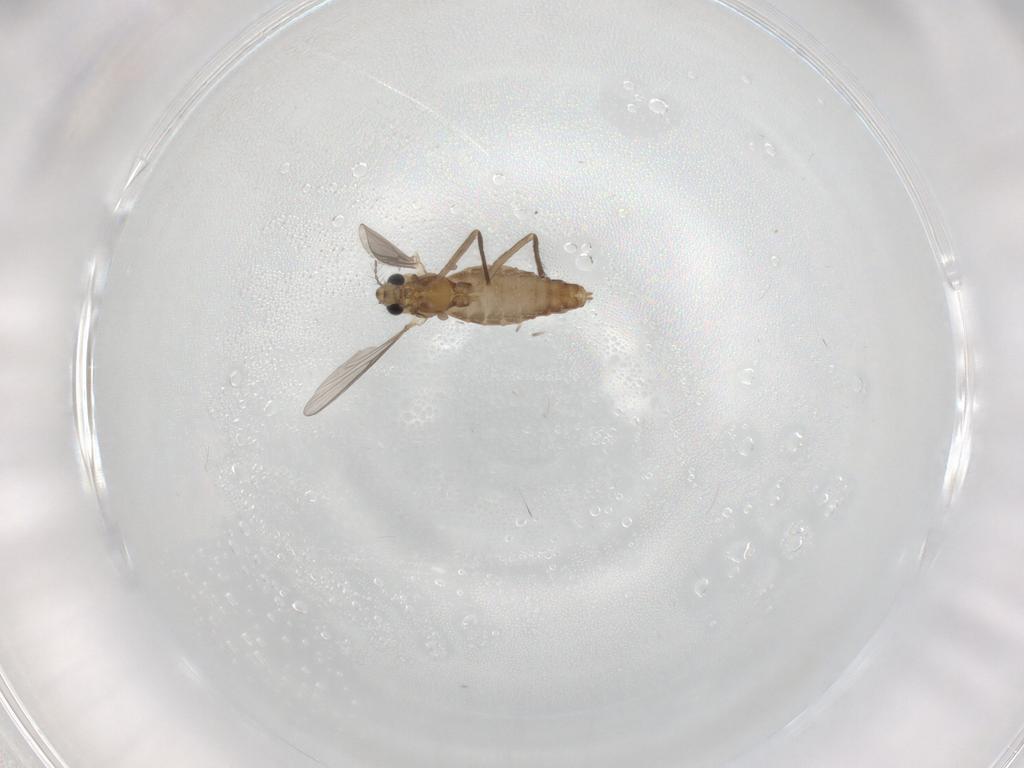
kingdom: Animalia
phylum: Arthropoda
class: Insecta
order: Diptera
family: Chironomidae
